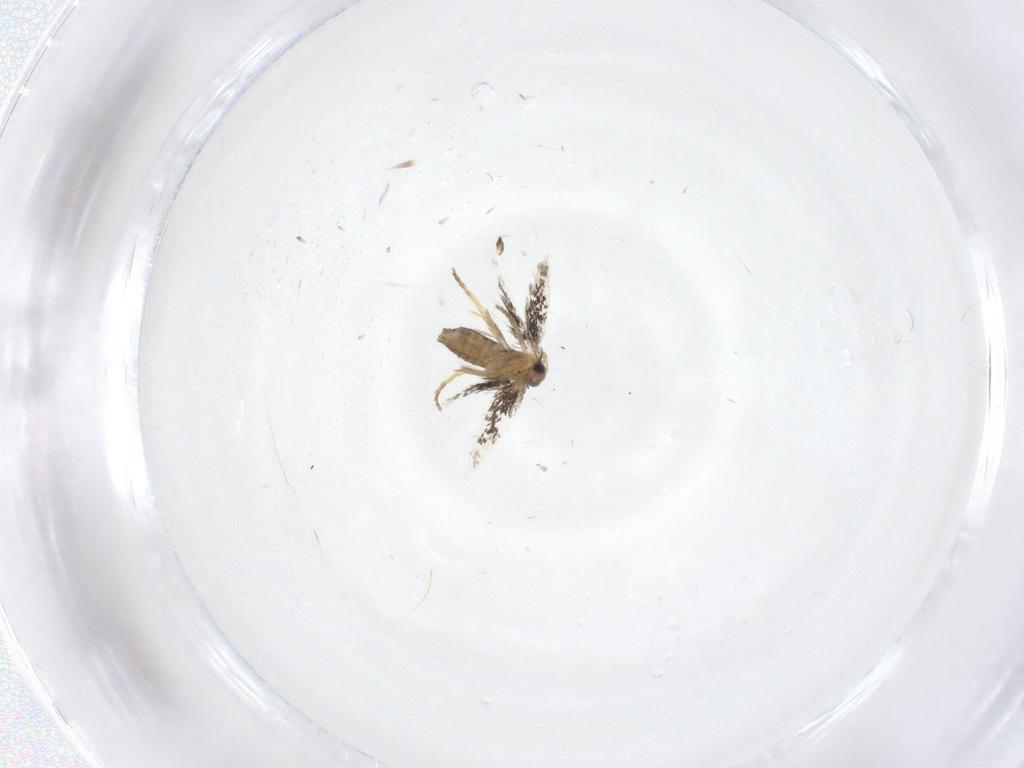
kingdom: Animalia
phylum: Arthropoda
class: Insecta
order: Lepidoptera
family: Nepticulidae
